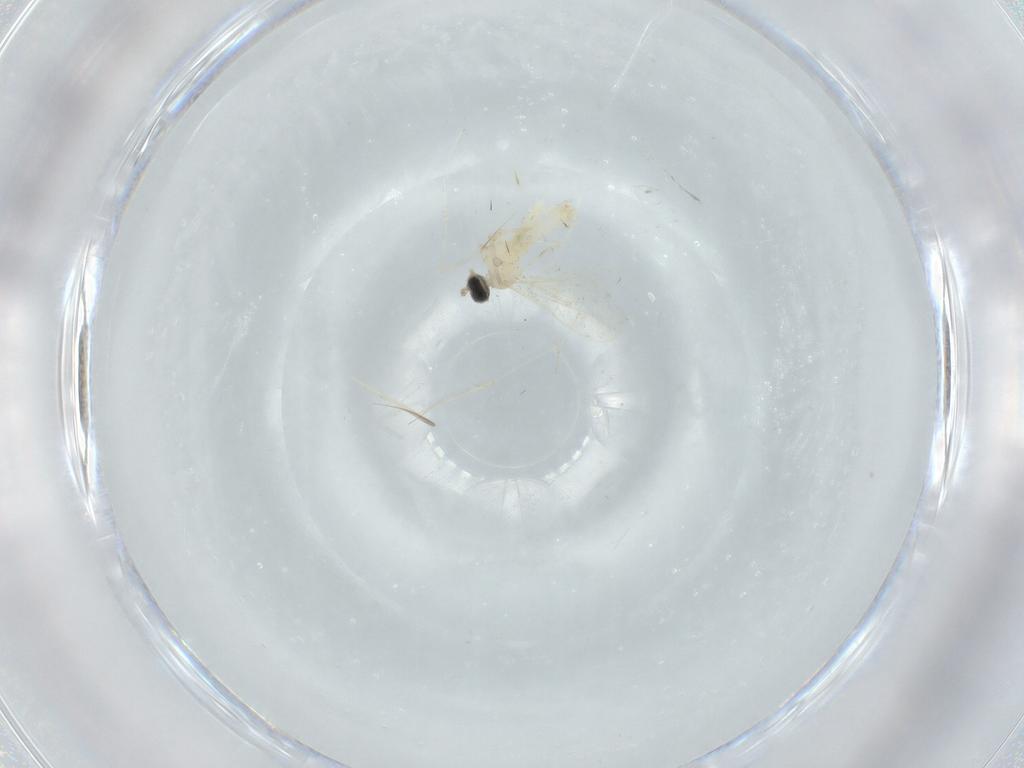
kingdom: Animalia
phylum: Arthropoda
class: Insecta
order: Diptera
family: Cecidomyiidae
